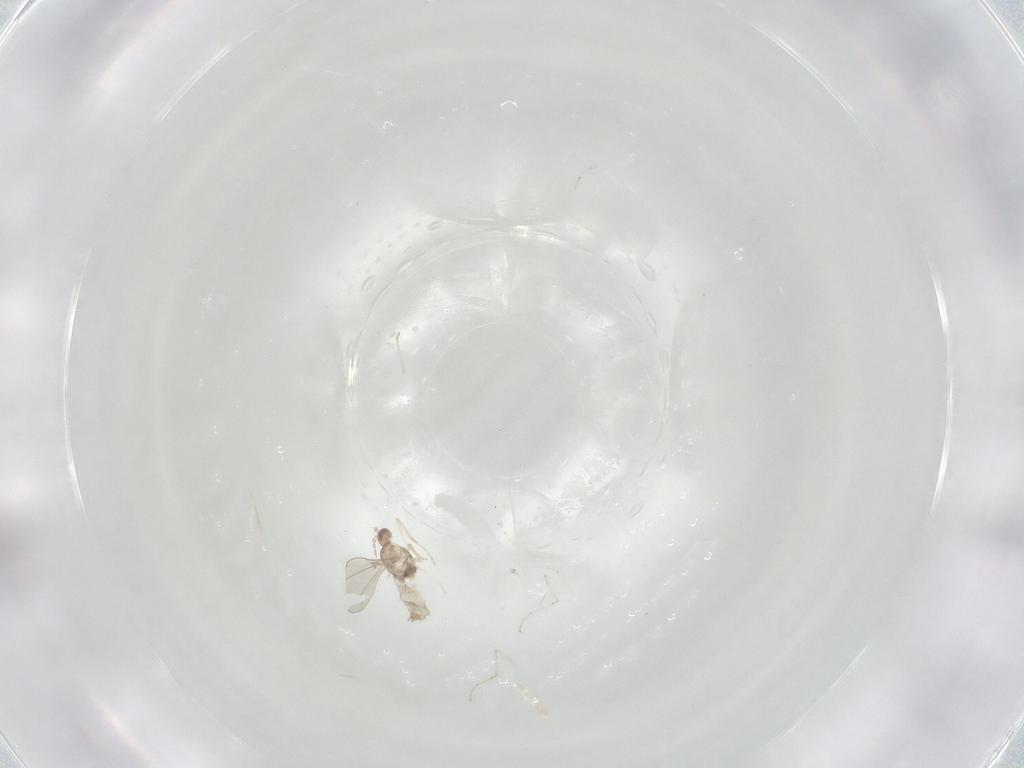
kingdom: Animalia
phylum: Arthropoda
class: Insecta
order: Diptera
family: Tachinidae
